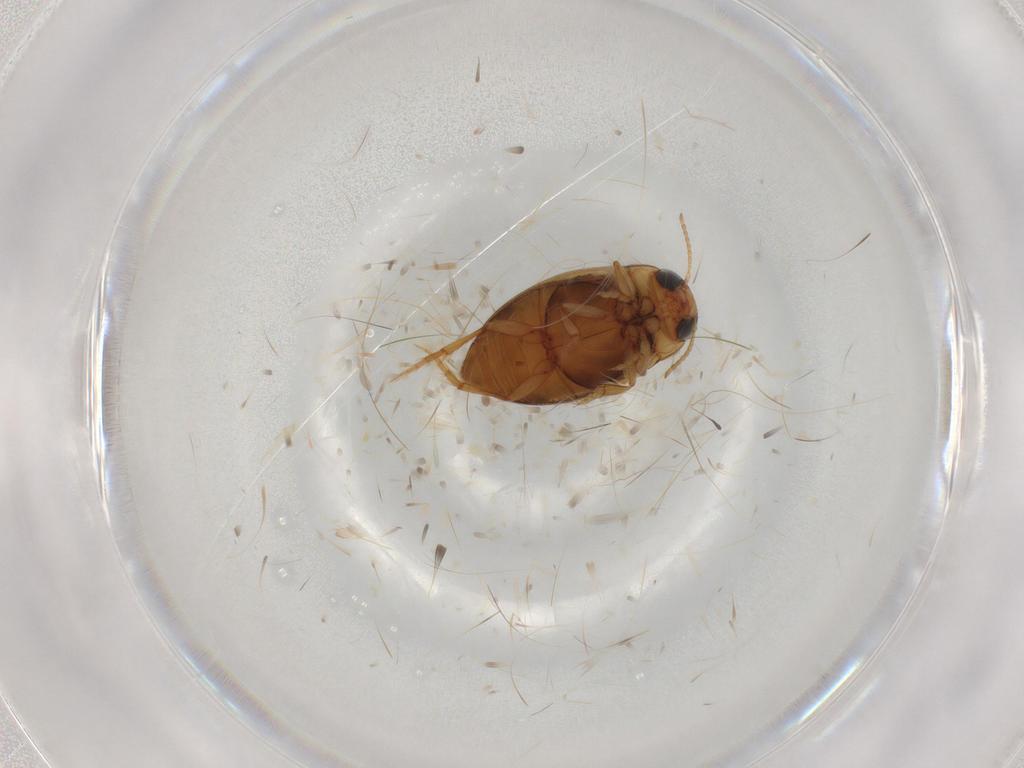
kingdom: Animalia
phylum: Arthropoda
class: Insecta
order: Coleoptera
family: Dytiscidae
